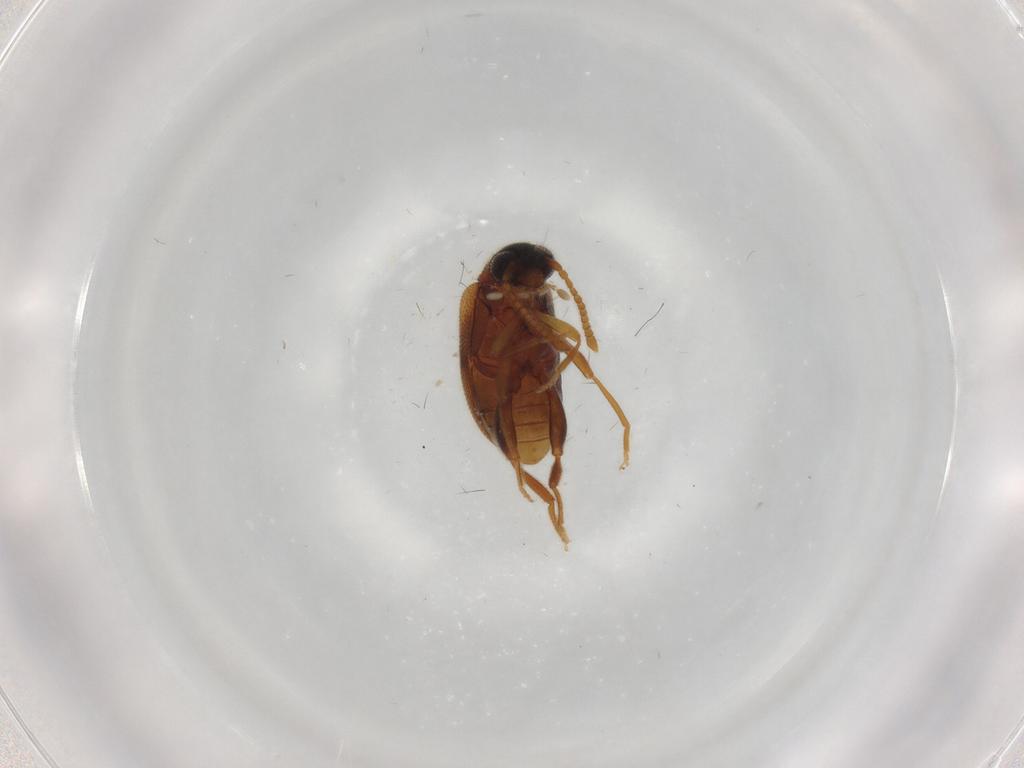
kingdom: Animalia
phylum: Arthropoda
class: Insecta
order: Coleoptera
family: Aderidae
